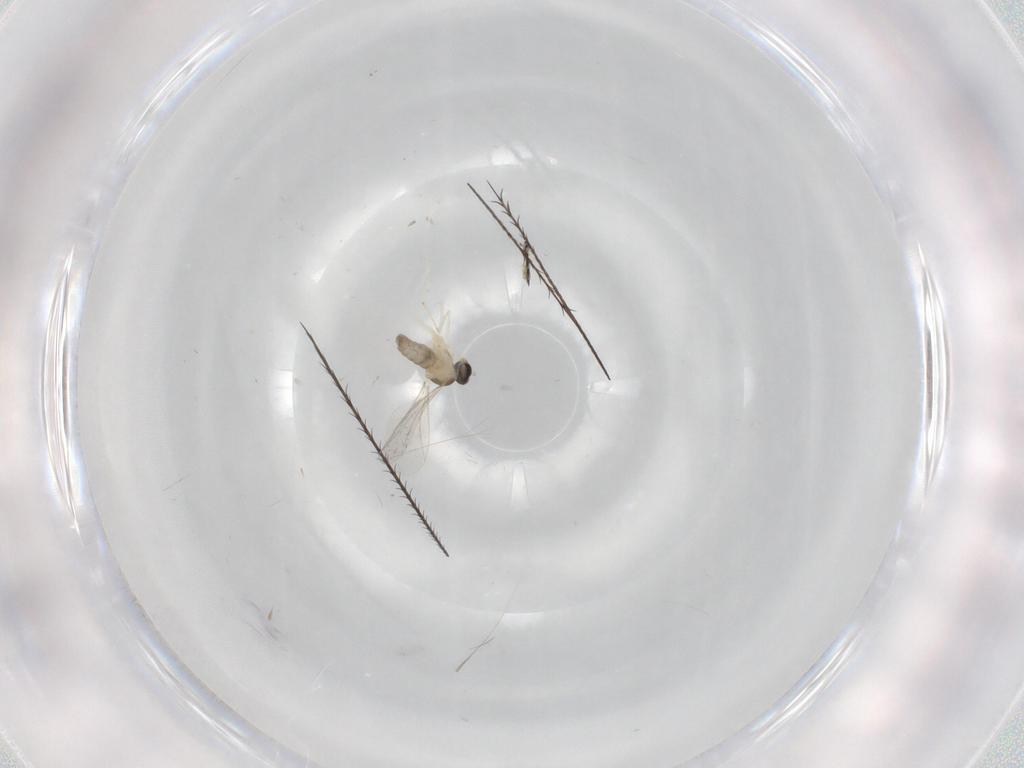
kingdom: Animalia
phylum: Arthropoda
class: Insecta
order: Diptera
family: Cecidomyiidae
